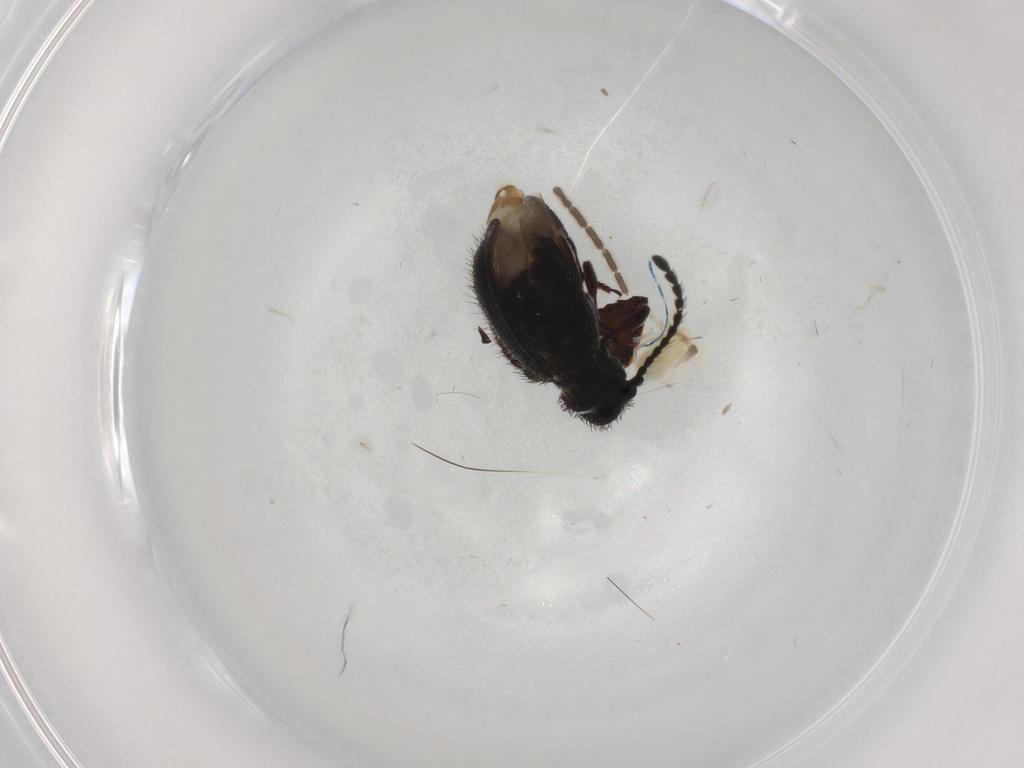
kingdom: Animalia
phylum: Arthropoda
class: Insecta
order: Coleoptera
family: Ptinidae
